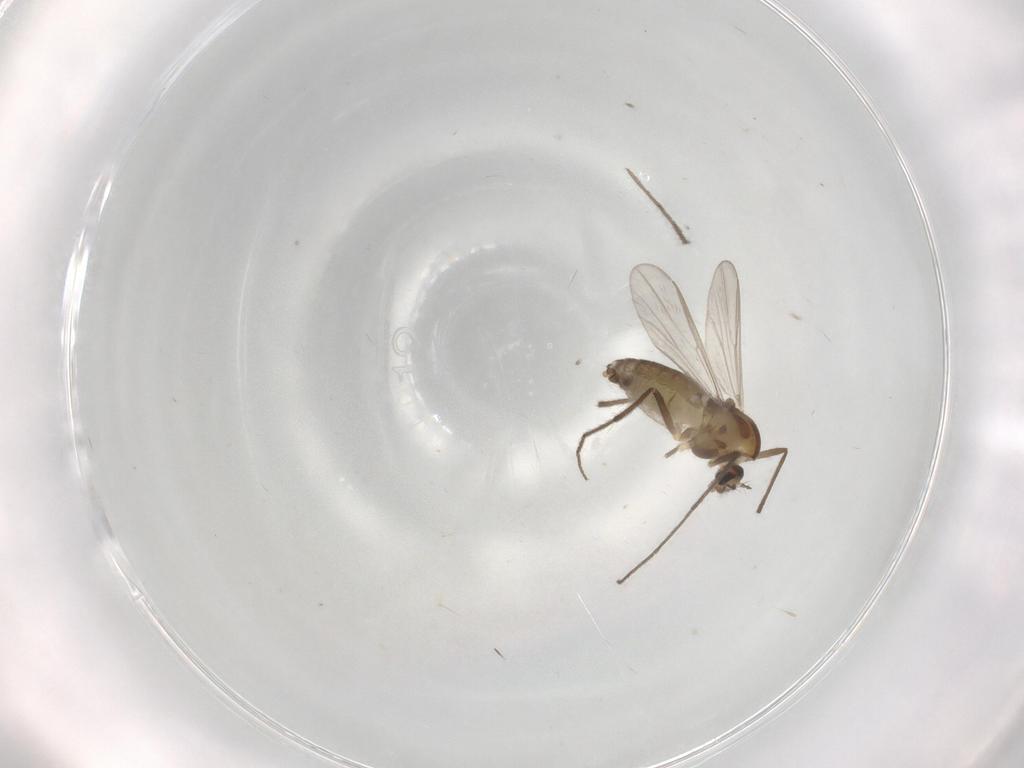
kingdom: Animalia
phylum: Arthropoda
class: Insecta
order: Diptera
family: Chironomidae
